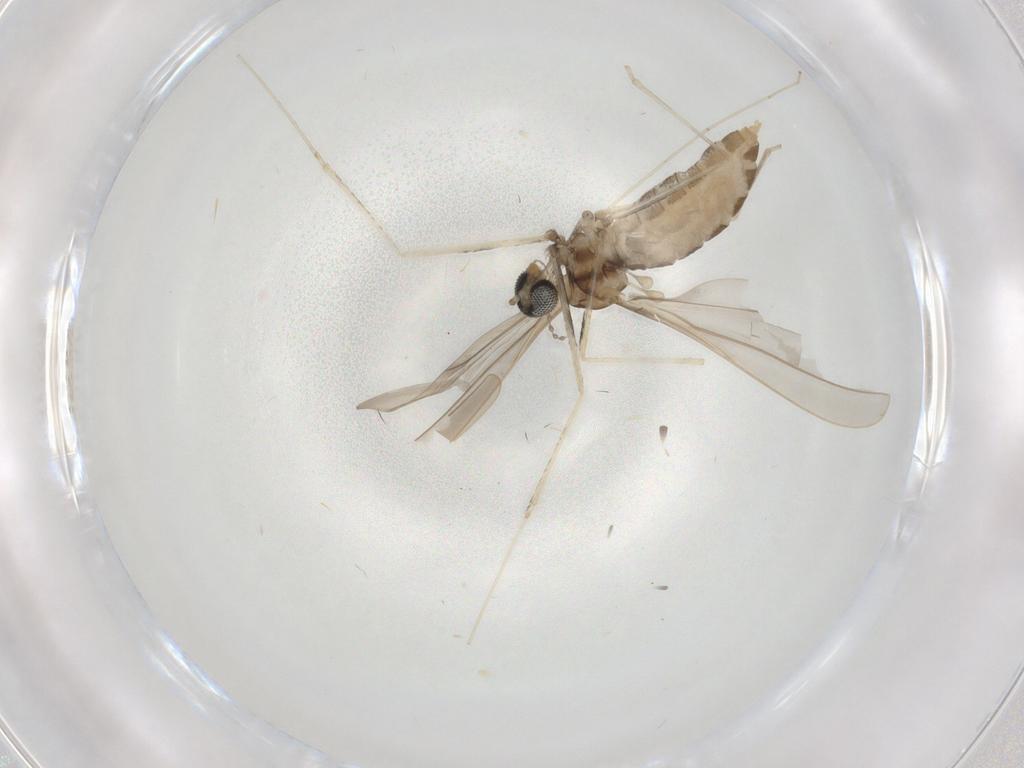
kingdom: Animalia
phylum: Arthropoda
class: Insecta
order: Diptera
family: Cecidomyiidae
